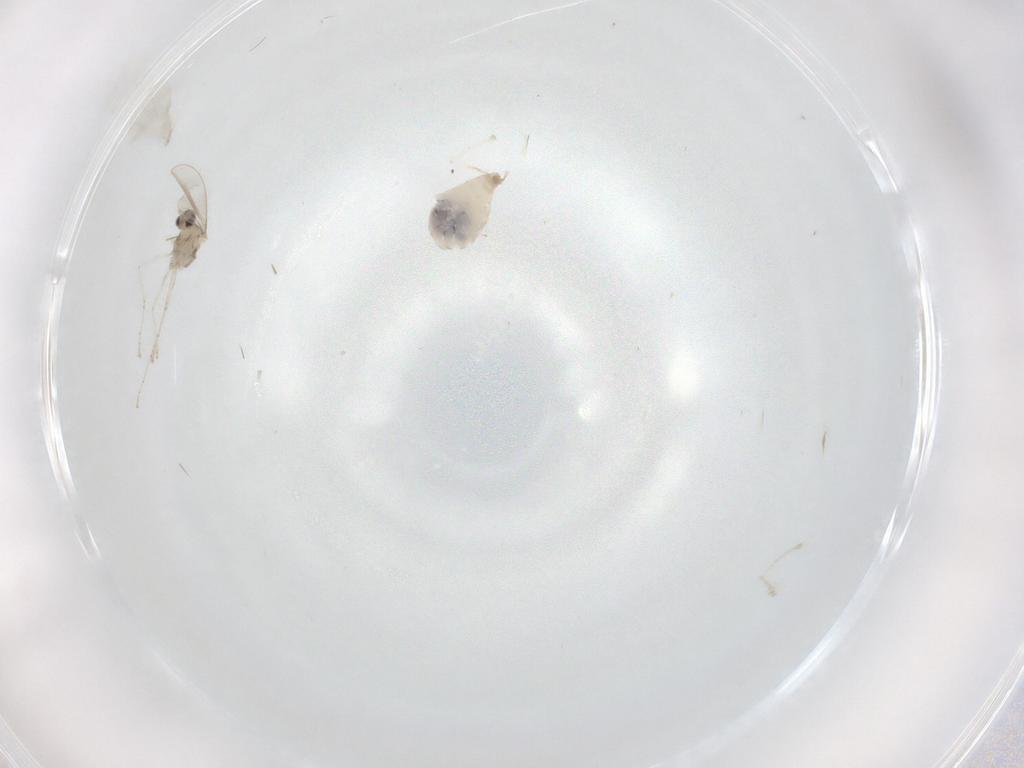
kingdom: Animalia
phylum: Arthropoda
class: Insecta
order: Diptera
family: Cecidomyiidae
